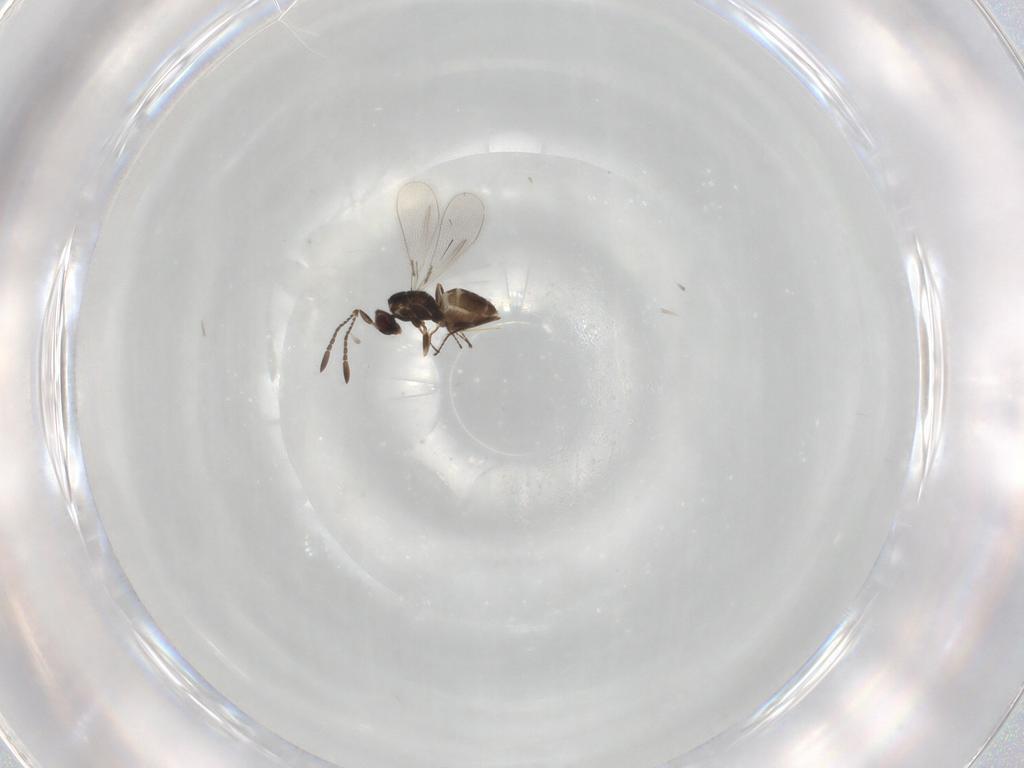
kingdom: Animalia
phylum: Arthropoda
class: Insecta
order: Hymenoptera
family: Mymaridae
